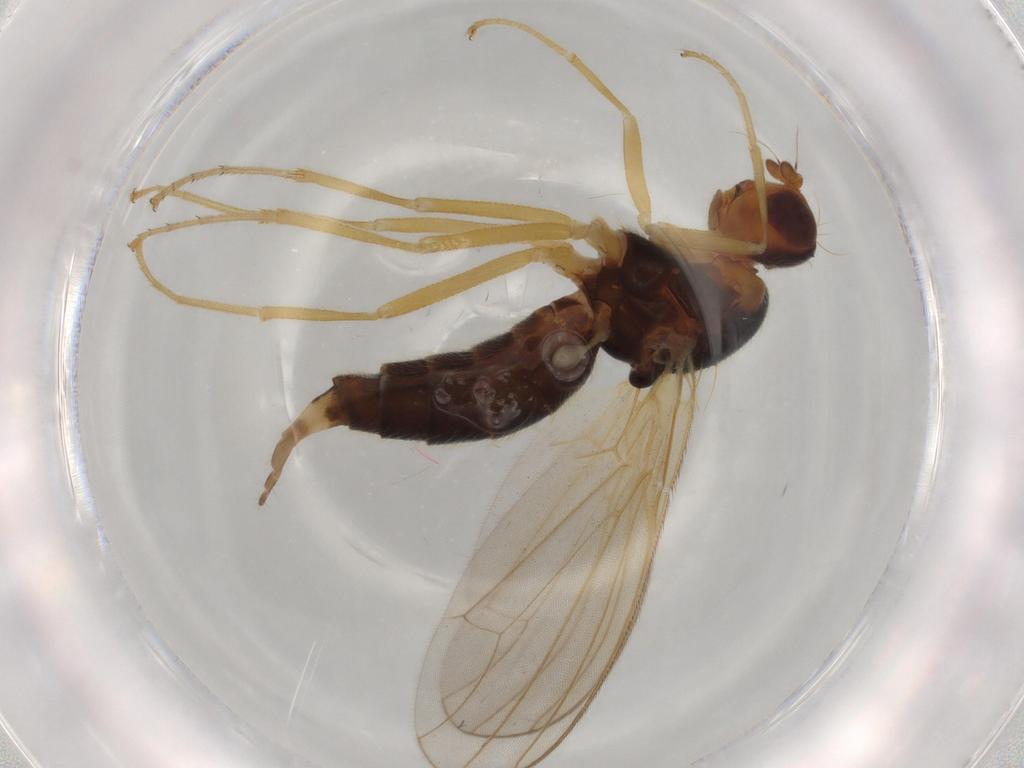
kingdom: Animalia
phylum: Arthropoda
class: Insecta
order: Diptera
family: Psilidae
